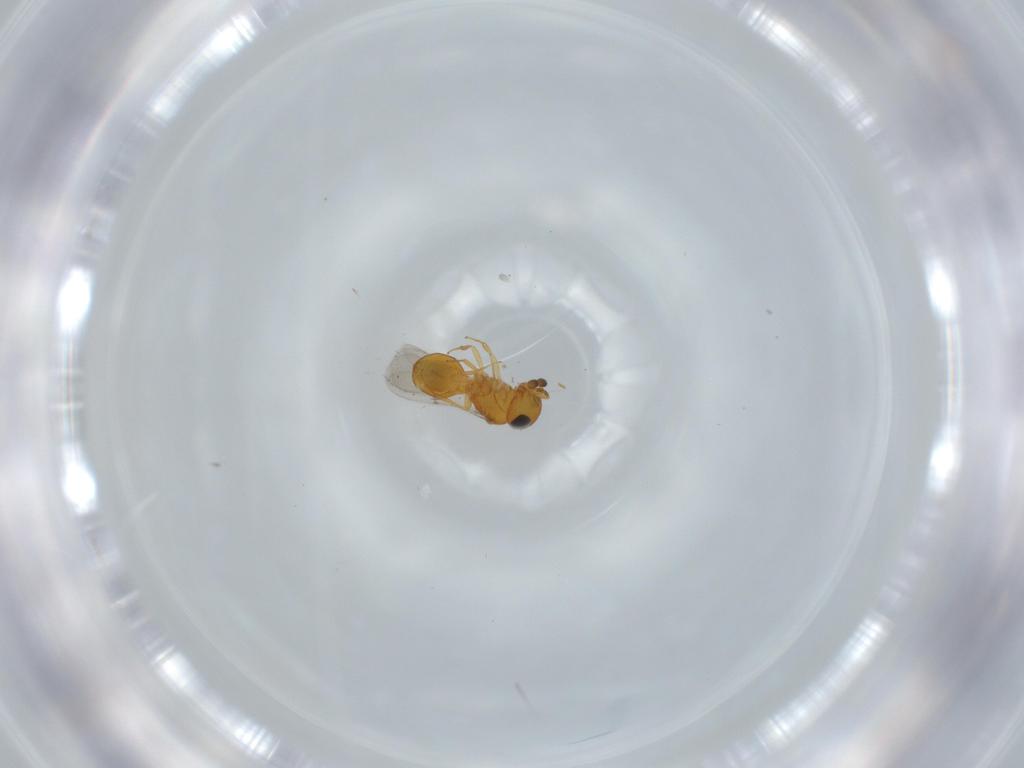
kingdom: Animalia
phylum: Arthropoda
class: Insecta
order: Hymenoptera
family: Scelionidae
